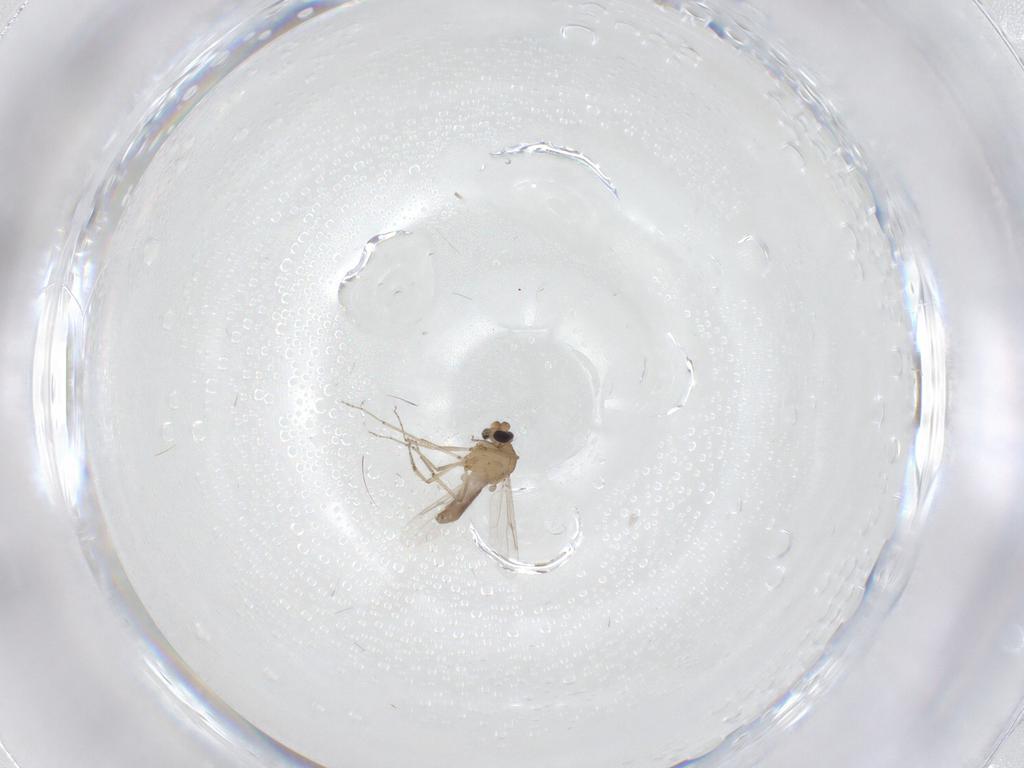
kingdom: Animalia
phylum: Arthropoda
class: Insecta
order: Diptera
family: Ceratopogonidae
